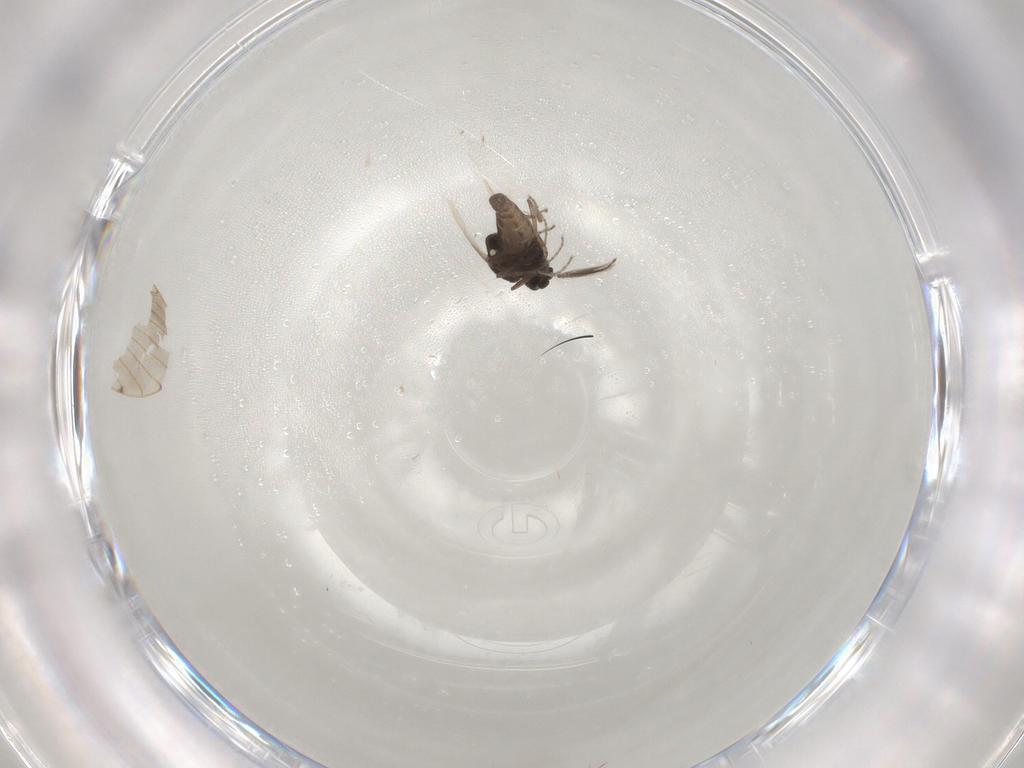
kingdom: Animalia
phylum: Arthropoda
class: Insecta
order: Diptera
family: Ceratopogonidae
